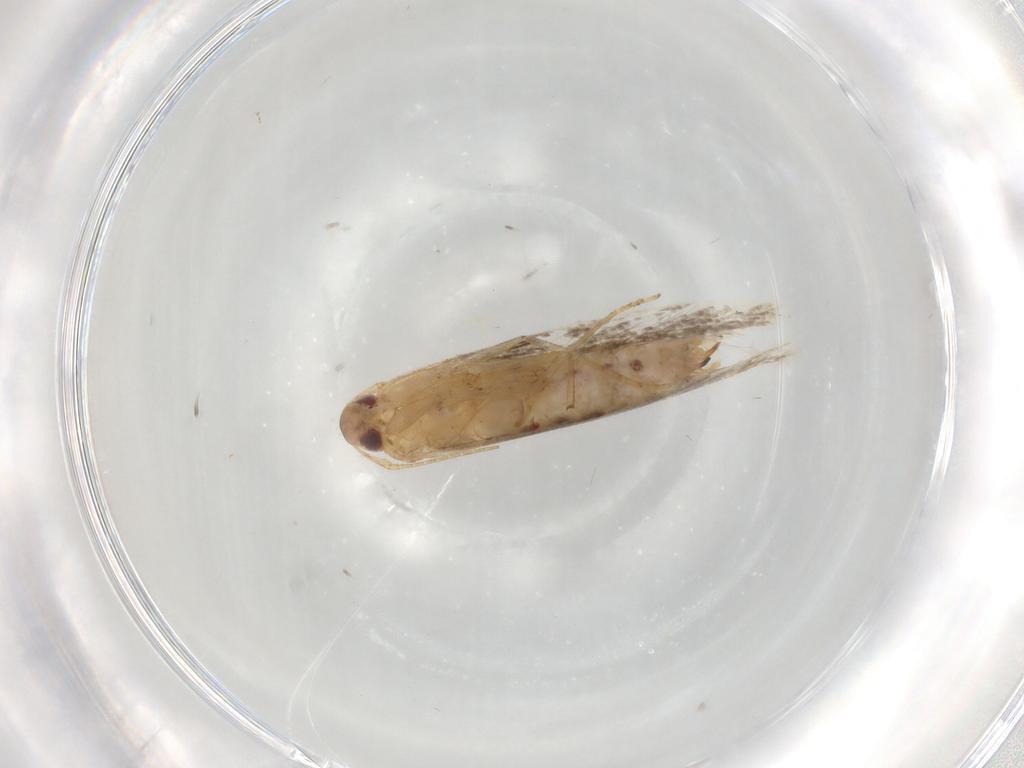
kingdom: Animalia
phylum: Arthropoda
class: Insecta
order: Lepidoptera
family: Cosmopterigidae
